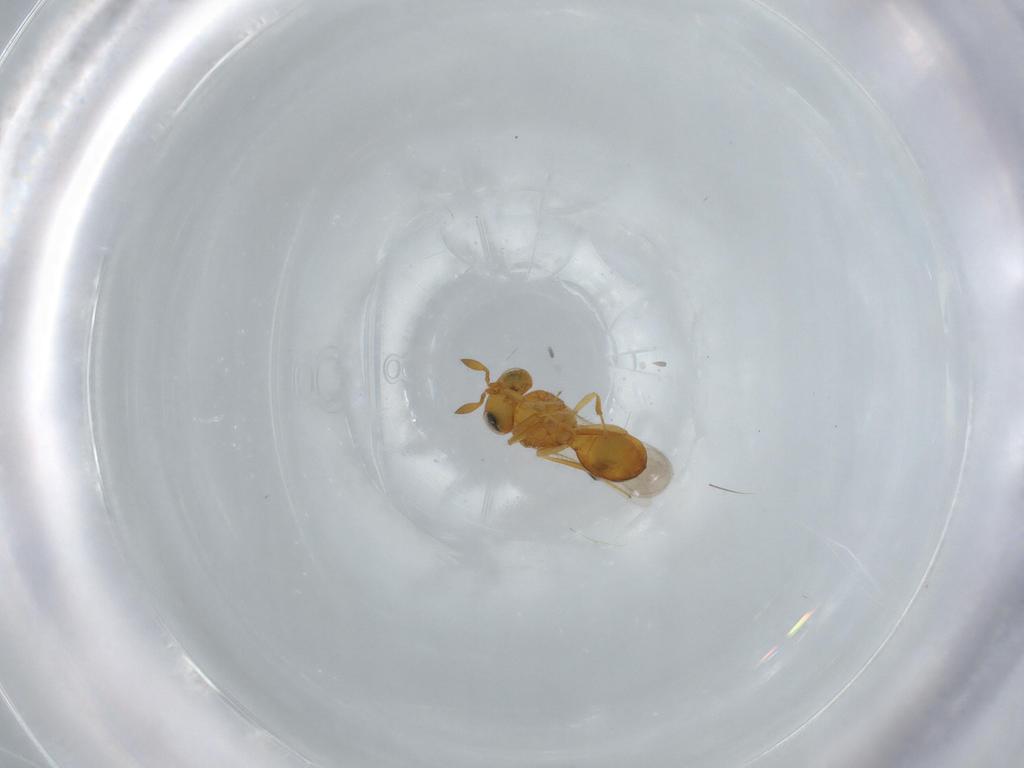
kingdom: Animalia
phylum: Arthropoda
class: Insecta
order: Hymenoptera
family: Scelionidae
